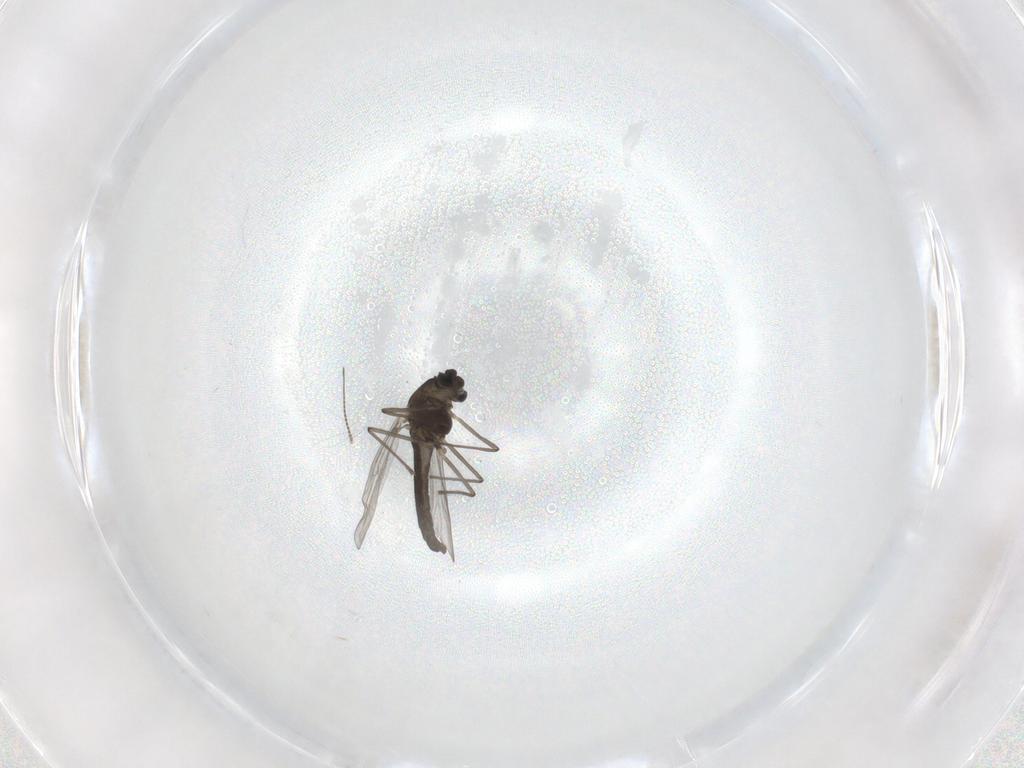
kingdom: Animalia
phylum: Arthropoda
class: Insecta
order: Diptera
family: Chironomidae
